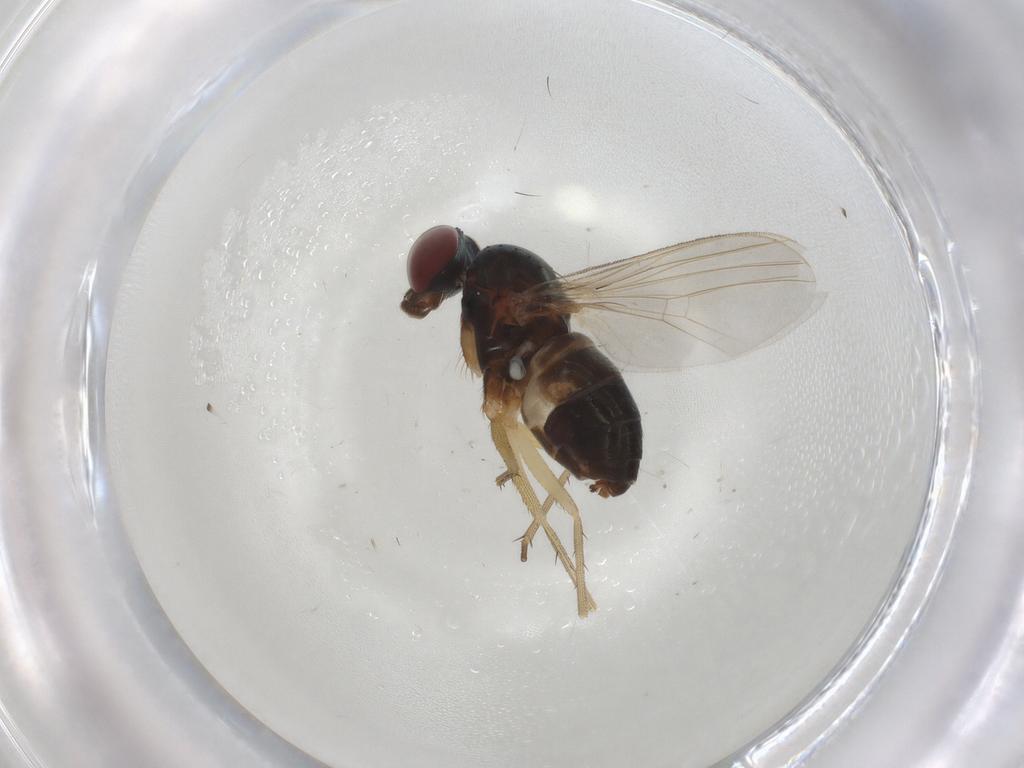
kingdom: Animalia
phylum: Arthropoda
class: Insecta
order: Diptera
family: Dolichopodidae
